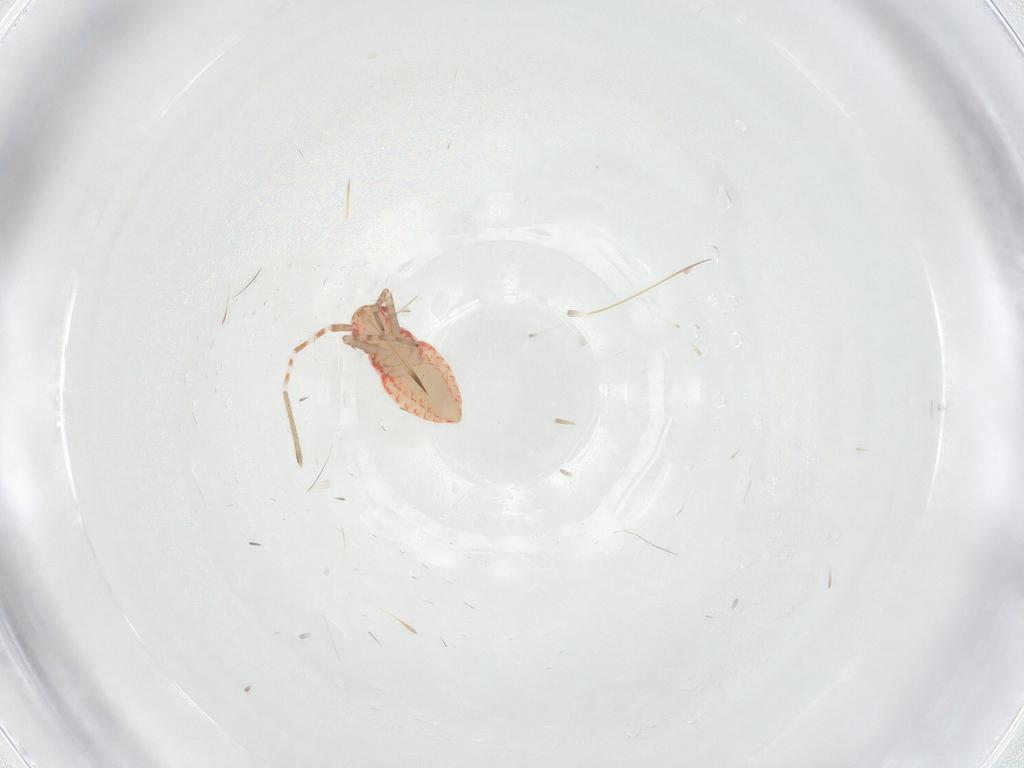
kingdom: Animalia
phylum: Arthropoda
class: Insecta
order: Hemiptera
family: Miridae
